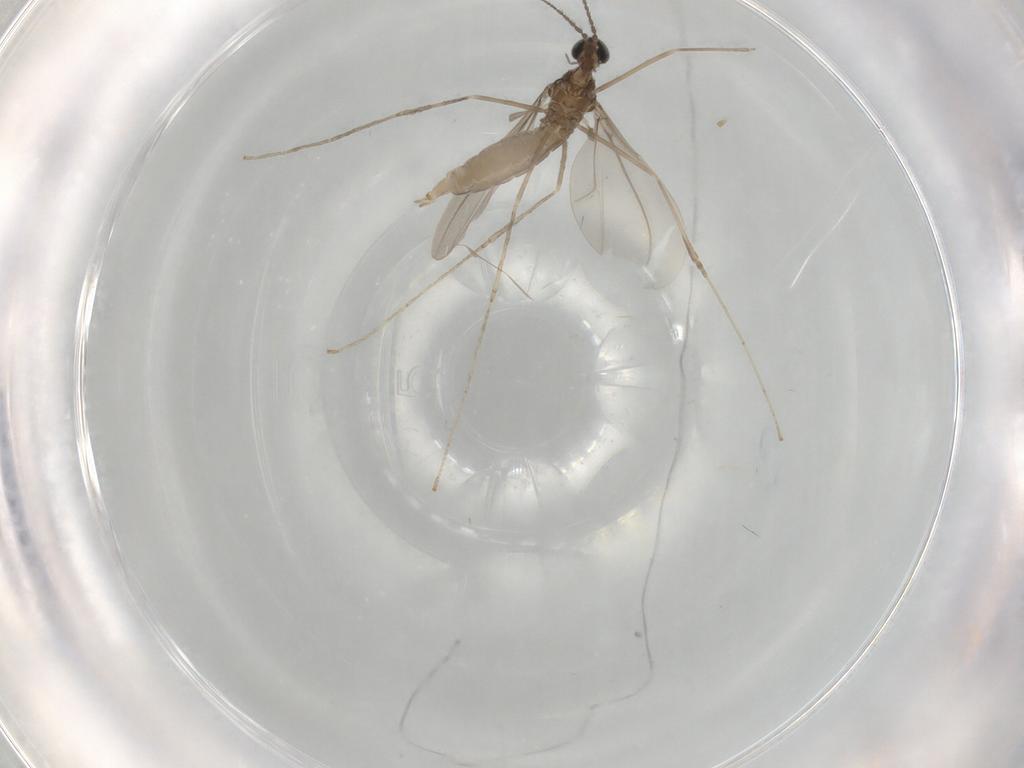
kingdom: Animalia
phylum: Arthropoda
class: Insecta
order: Diptera
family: Cecidomyiidae
